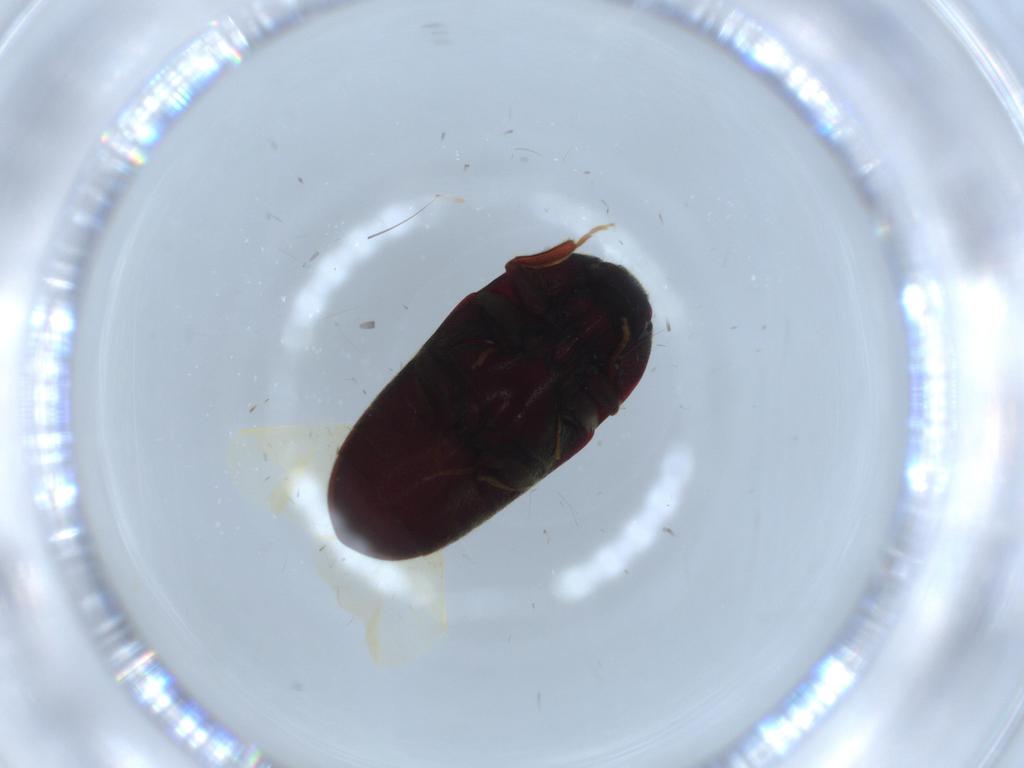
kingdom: Animalia
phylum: Arthropoda
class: Insecta
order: Coleoptera
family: Throscidae
